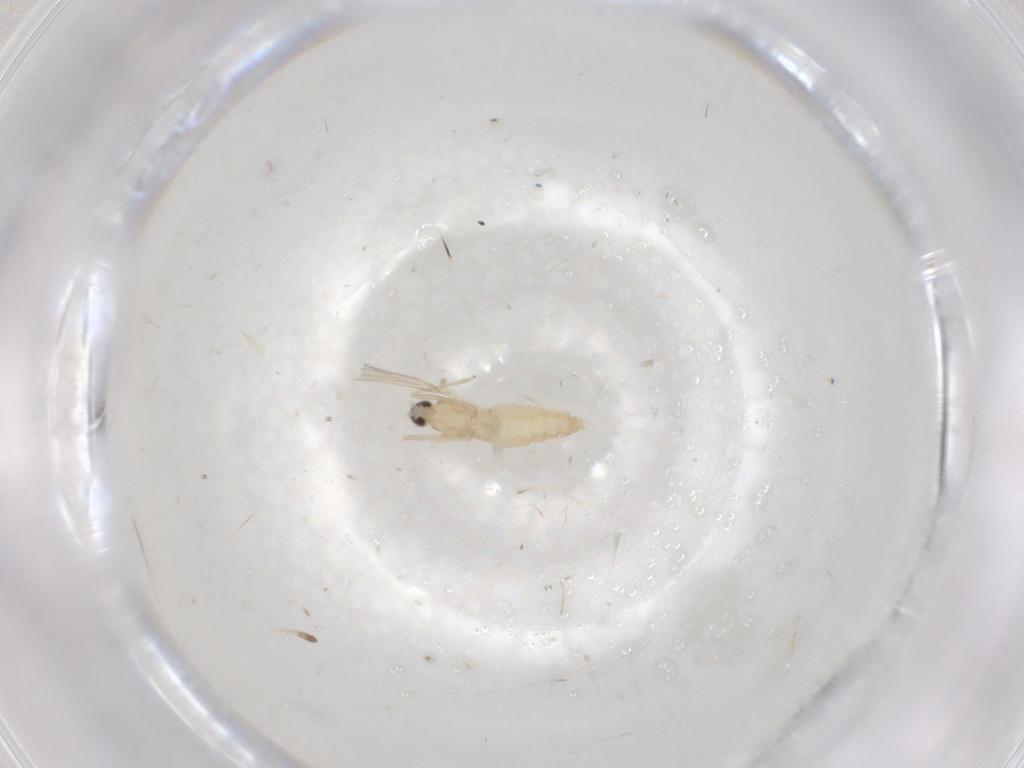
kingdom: Animalia
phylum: Arthropoda
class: Insecta
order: Diptera
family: Cecidomyiidae
